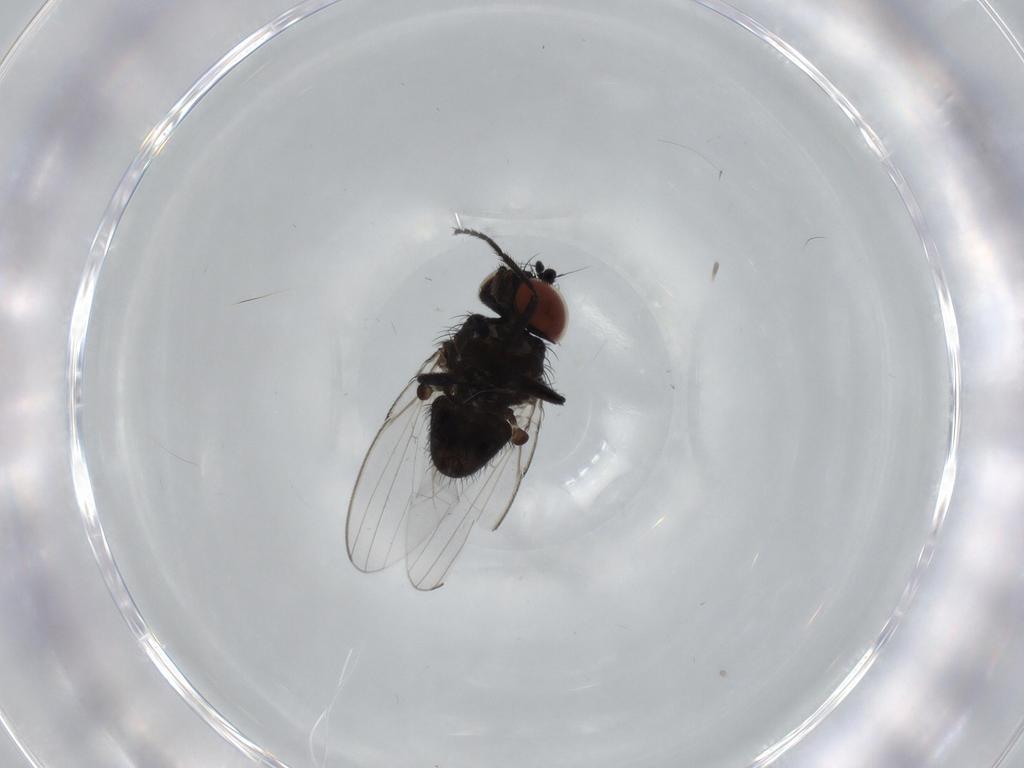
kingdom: Animalia
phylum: Arthropoda
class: Insecta
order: Diptera
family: Milichiidae
